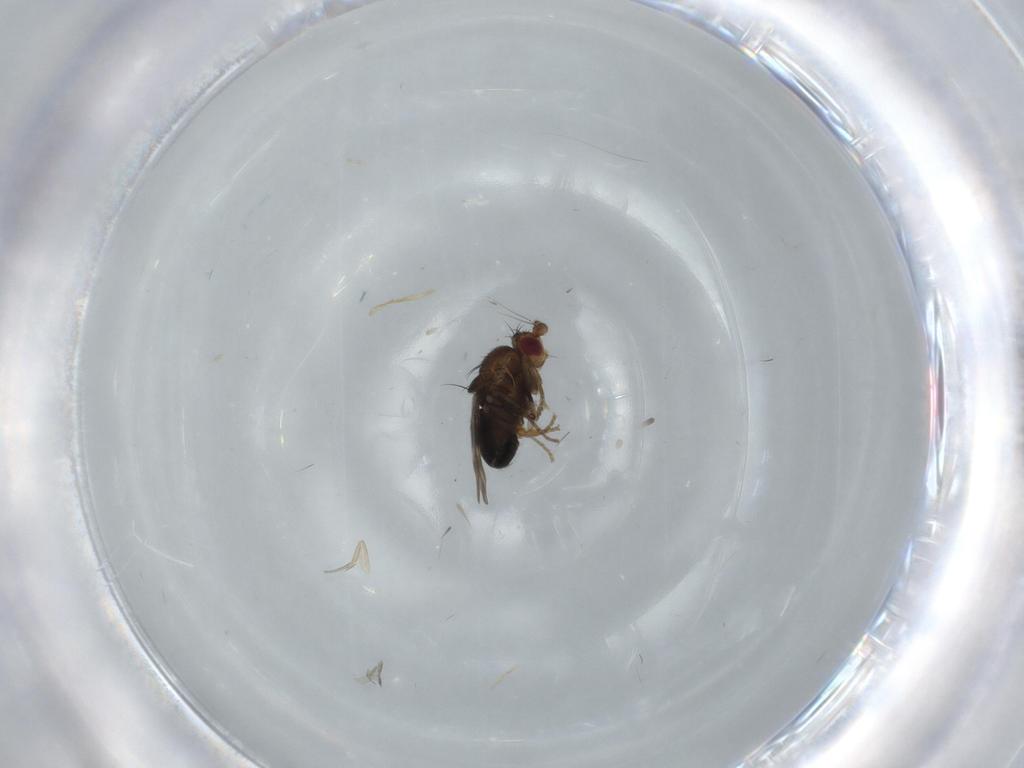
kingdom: Animalia
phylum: Arthropoda
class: Insecta
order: Diptera
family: Sphaeroceridae
